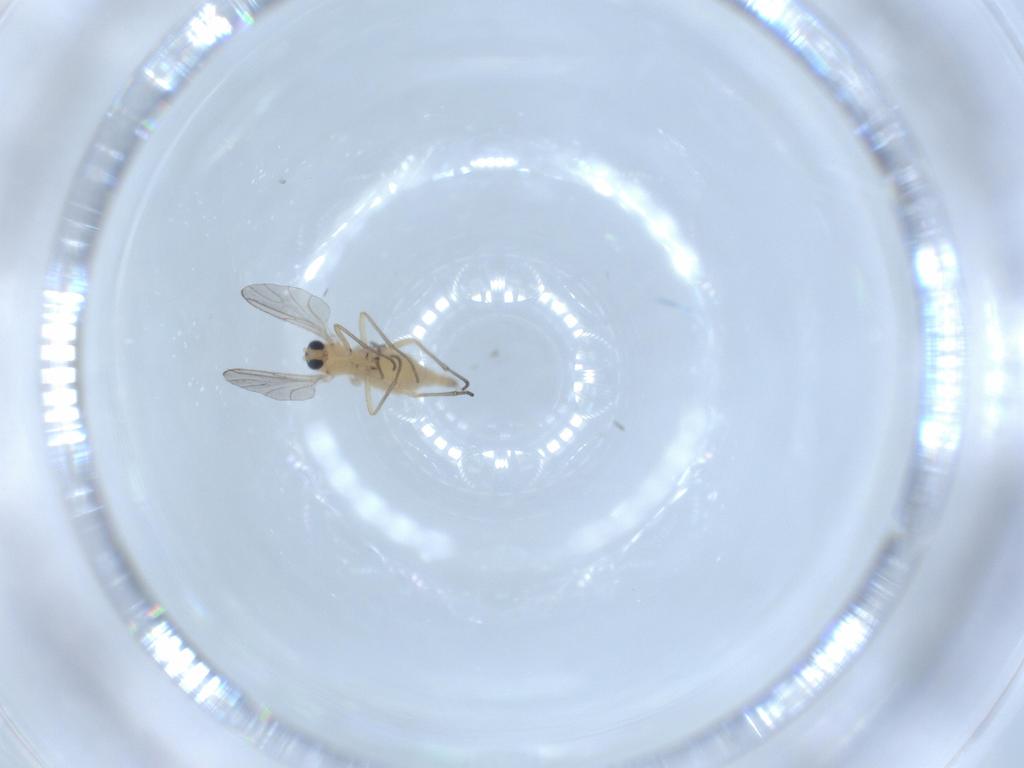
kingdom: Animalia
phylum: Arthropoda
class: Insecta
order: Diptera
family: Sciaridae
